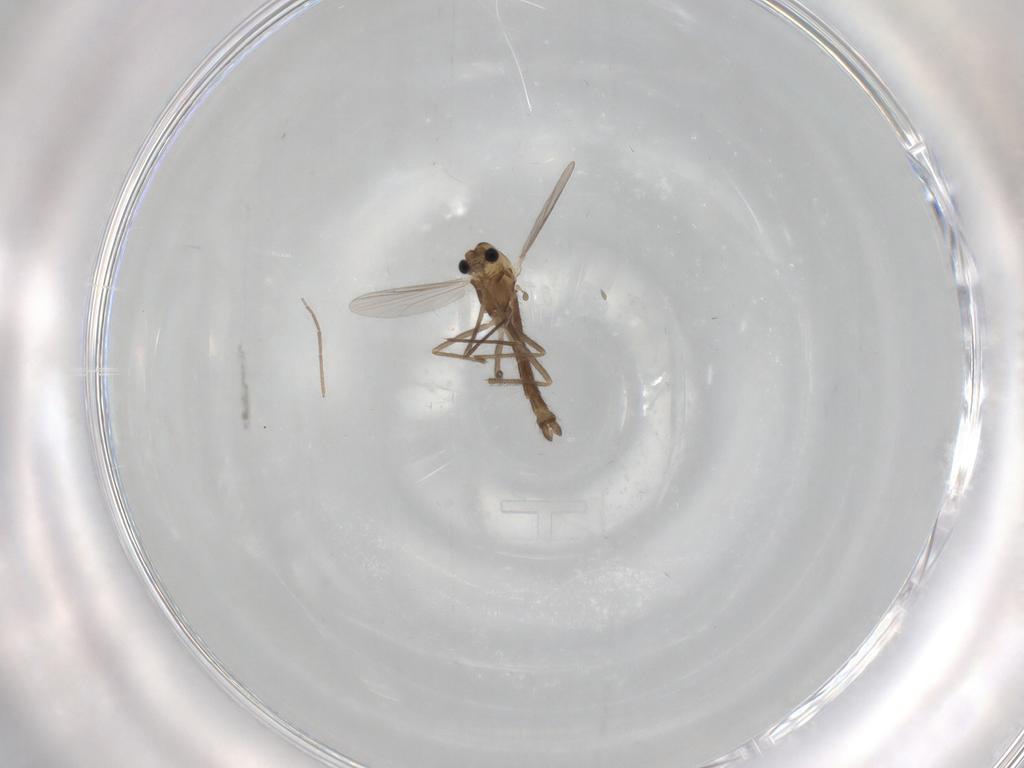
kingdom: Animalia
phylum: Arthropoda
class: Insecta
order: Diptera
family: Chironomidae
